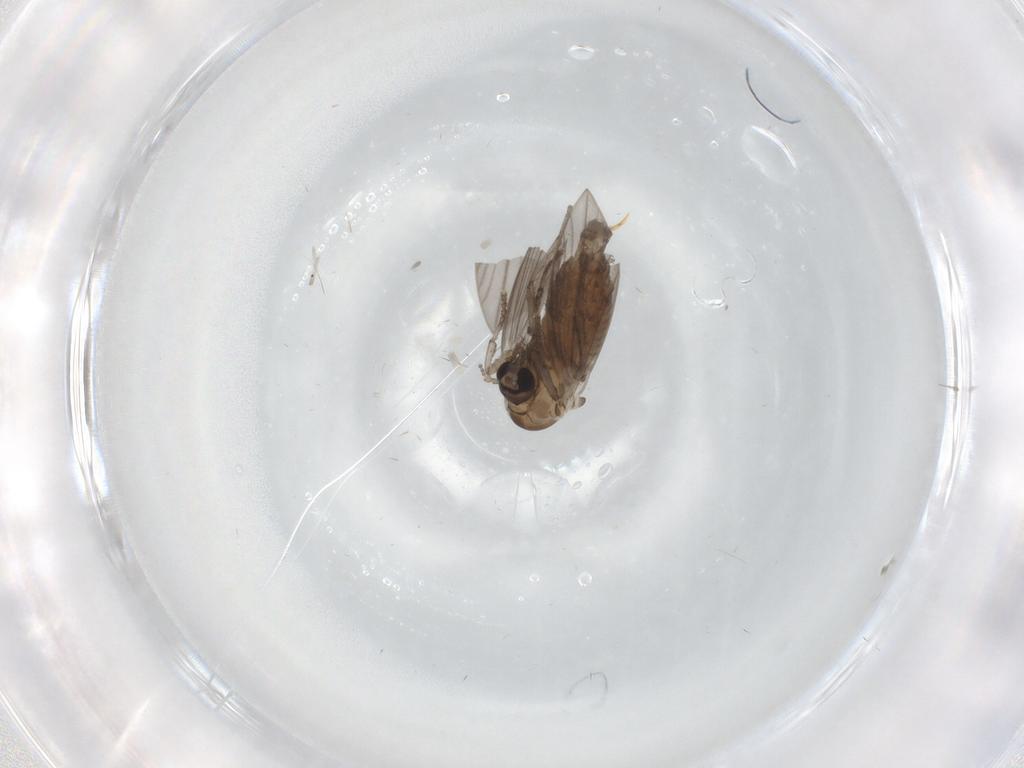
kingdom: Animalia
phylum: Arthropoda
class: Insecta
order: Diptera
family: Psychodidae
